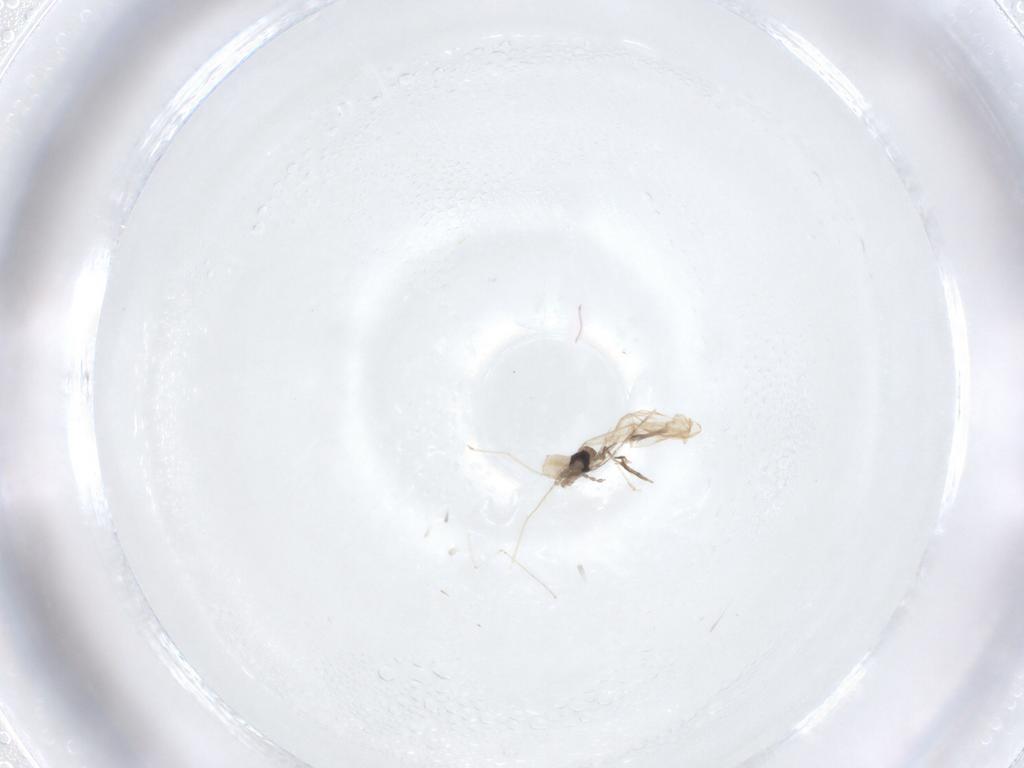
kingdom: Animalia
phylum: Arthropoda
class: Insecta
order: Diptera
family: Cecidomyiidae
